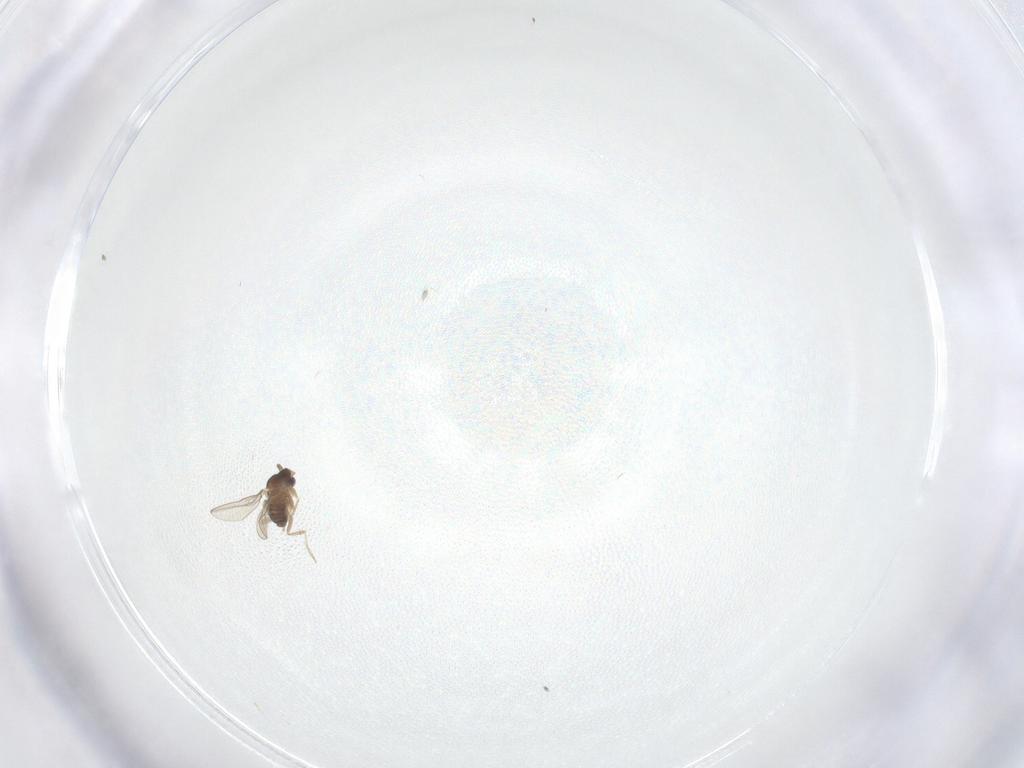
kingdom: Animalia
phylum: Arthropoda
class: Insecta
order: Diptera
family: Cecidomyiidae
